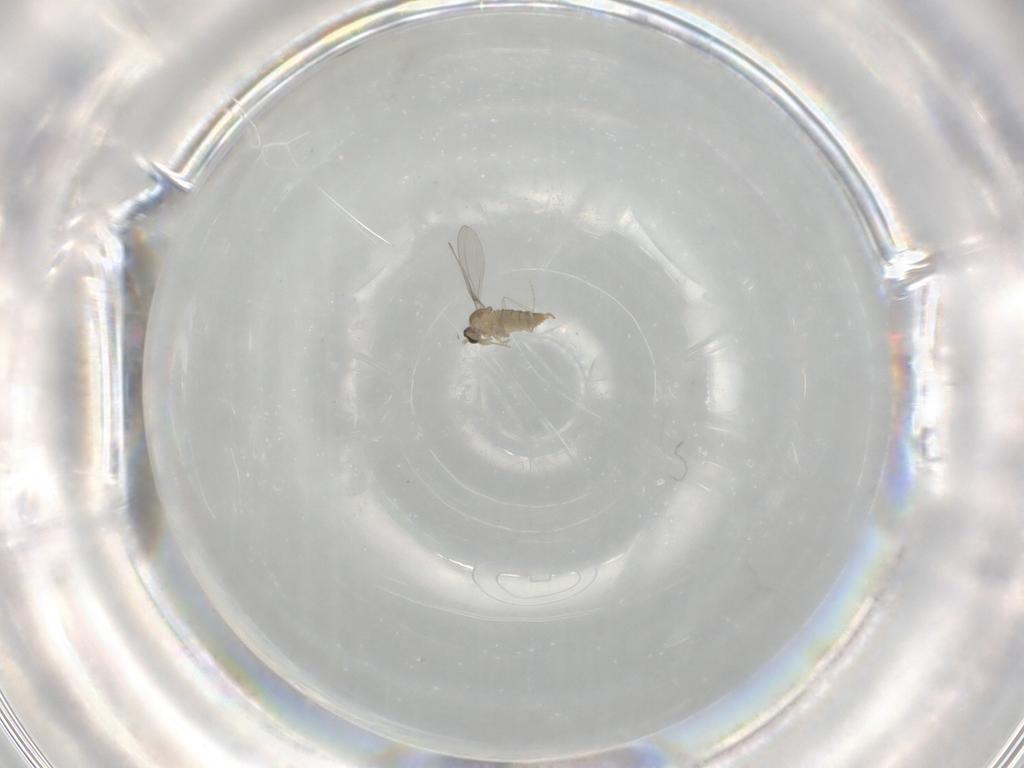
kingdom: Animalia
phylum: Arthropoda
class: Insecta
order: Diptera
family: Cecidomyiidae
